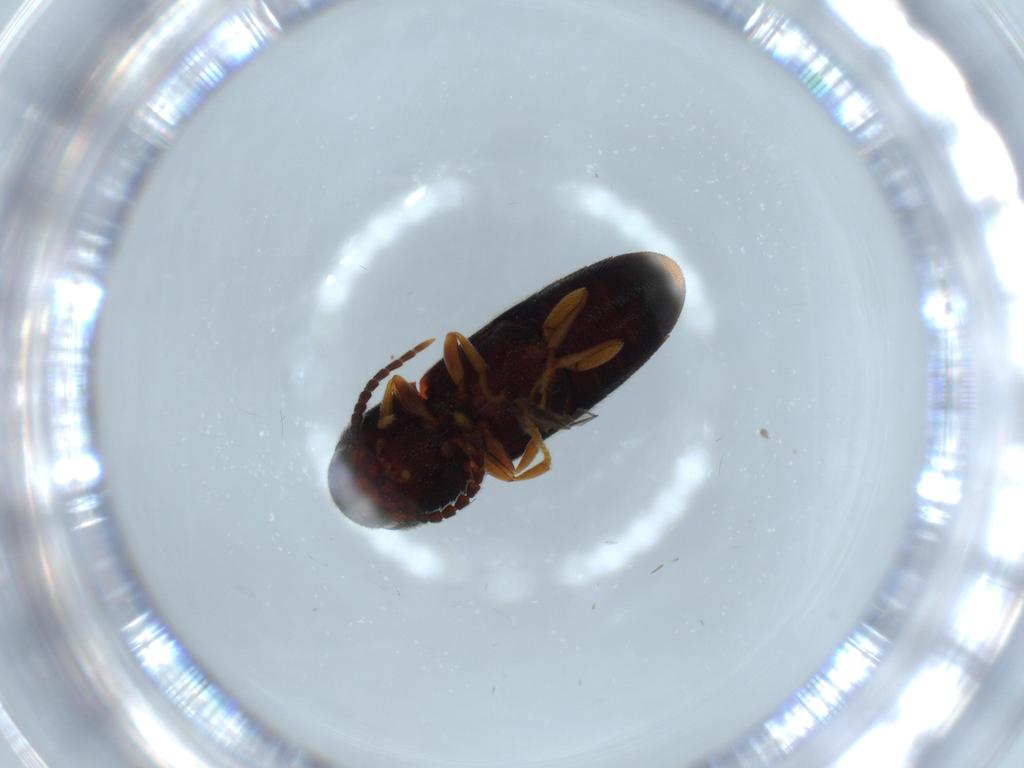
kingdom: Animalia
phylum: Arthropoda
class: Insecta
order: Coleoptera
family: Eucnemidae
